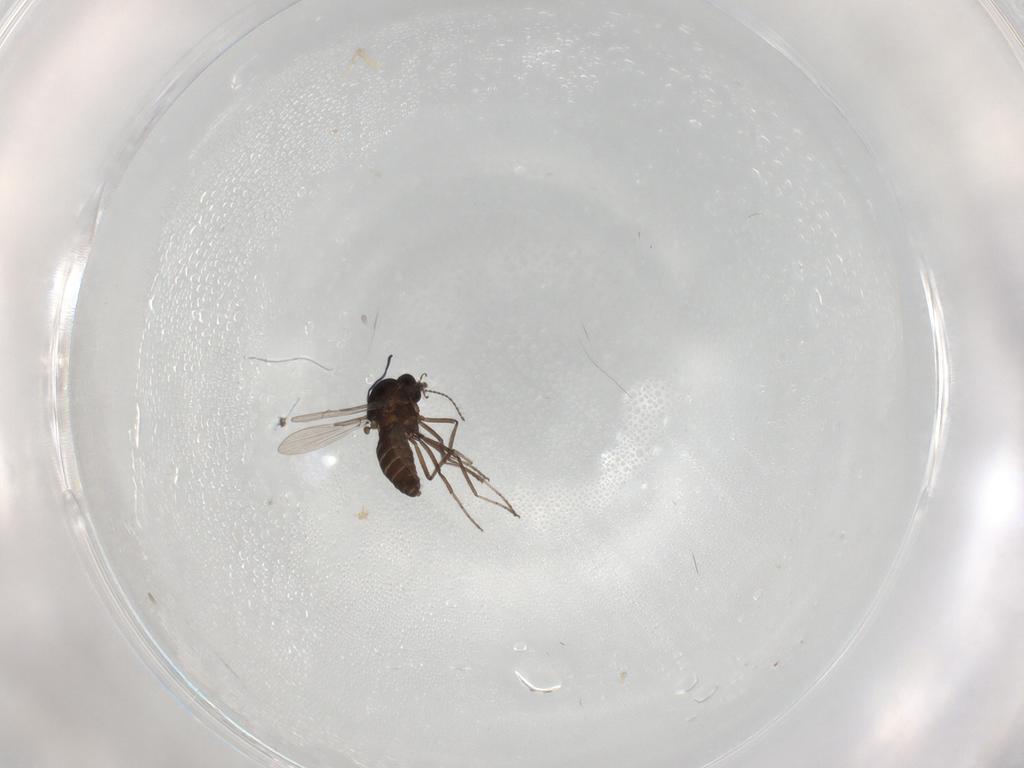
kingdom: Animalia
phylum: Arthropoda
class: Insecta
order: Diptera
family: Ceratopogonidae
